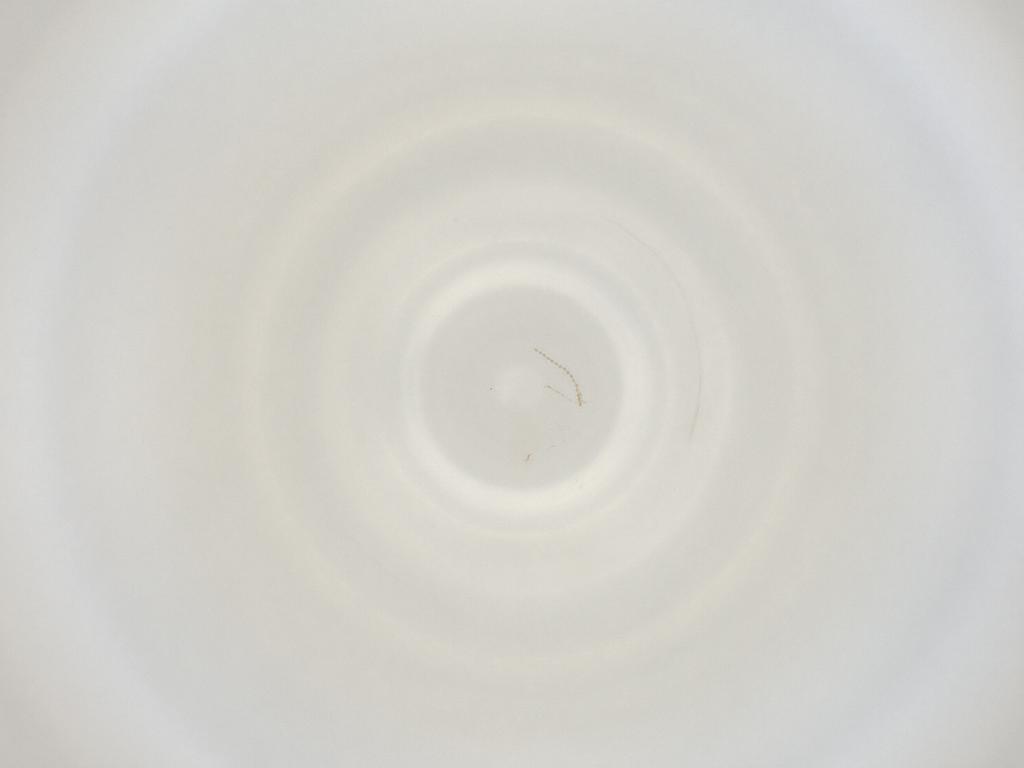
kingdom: Animalia
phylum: Arthropoda
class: Insecta
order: Diptera
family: Cecidomyiidae
